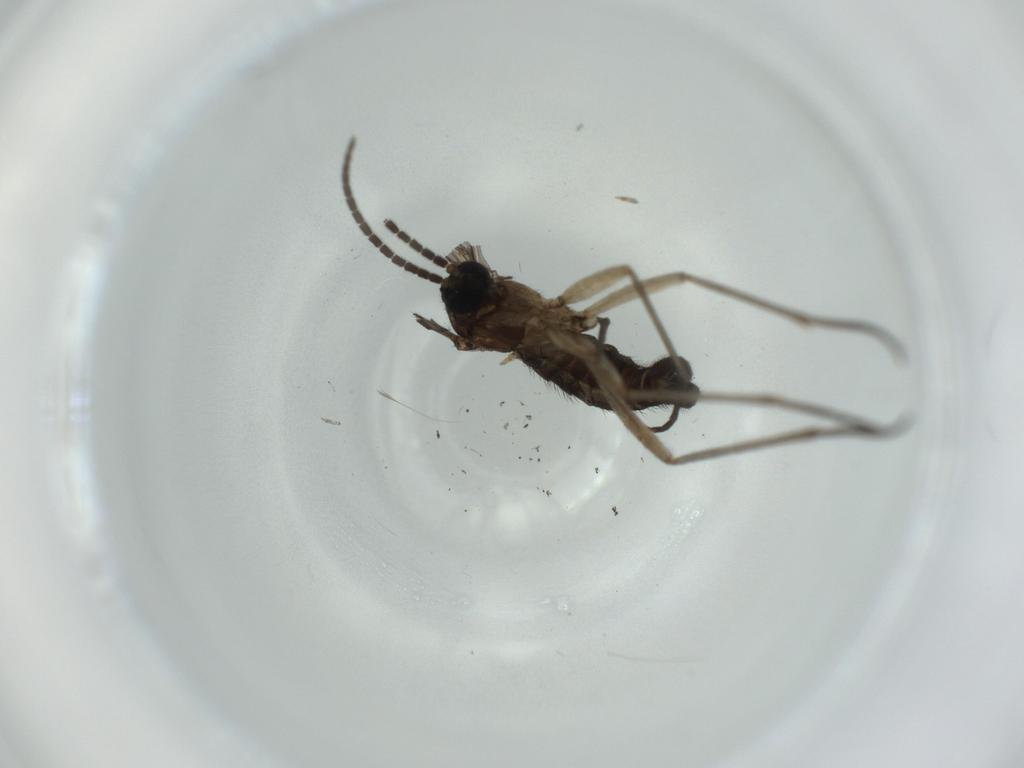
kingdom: Animalia
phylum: Arthropoda
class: Insecta
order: Diptera
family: Sciaridae
